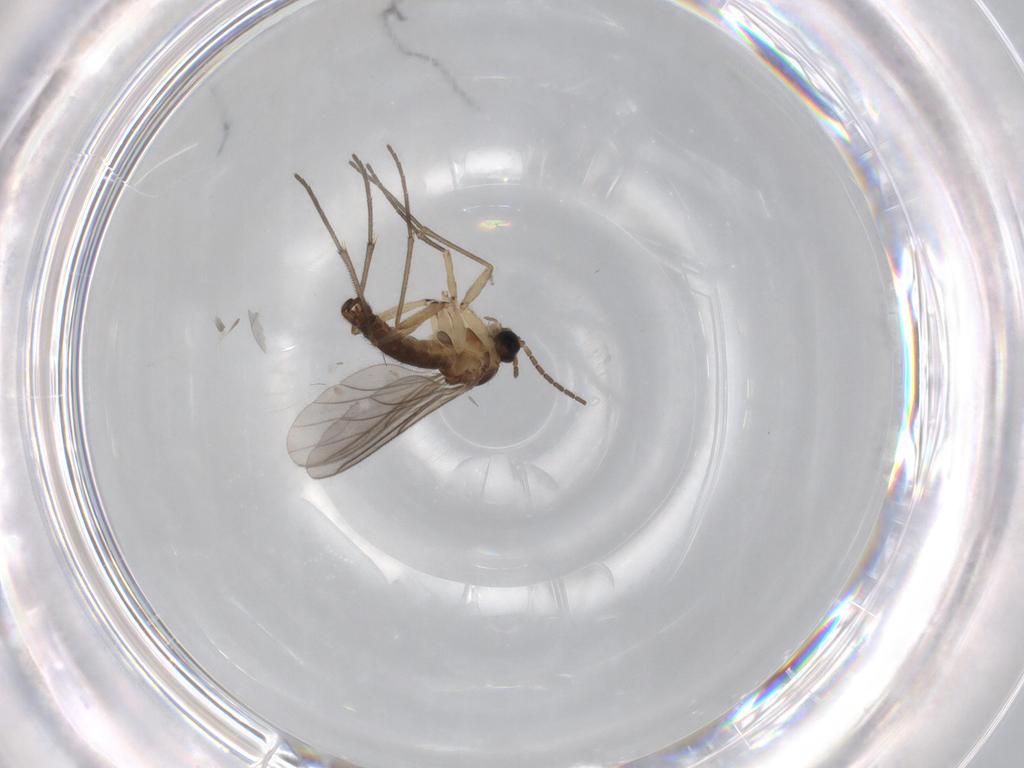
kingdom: Animalia
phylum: Arthropoda
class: Insecta
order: Diptera
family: Sciaridae
